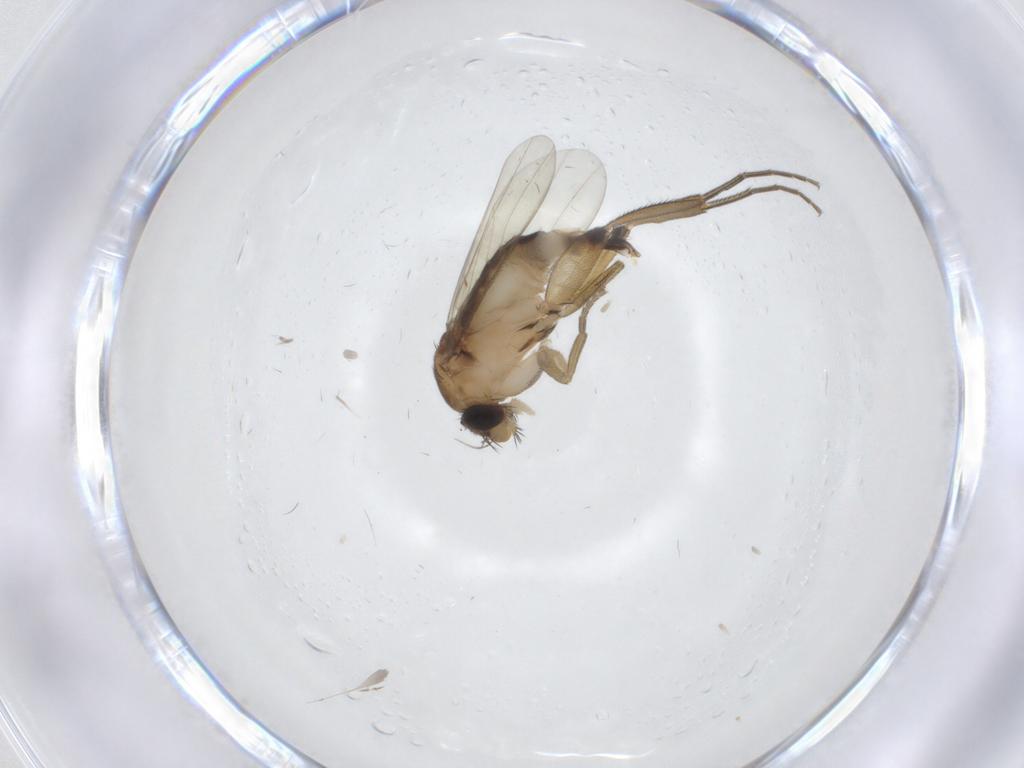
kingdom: Animalia
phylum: Arthropoda
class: Insecta
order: Diptera
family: Phoridae
